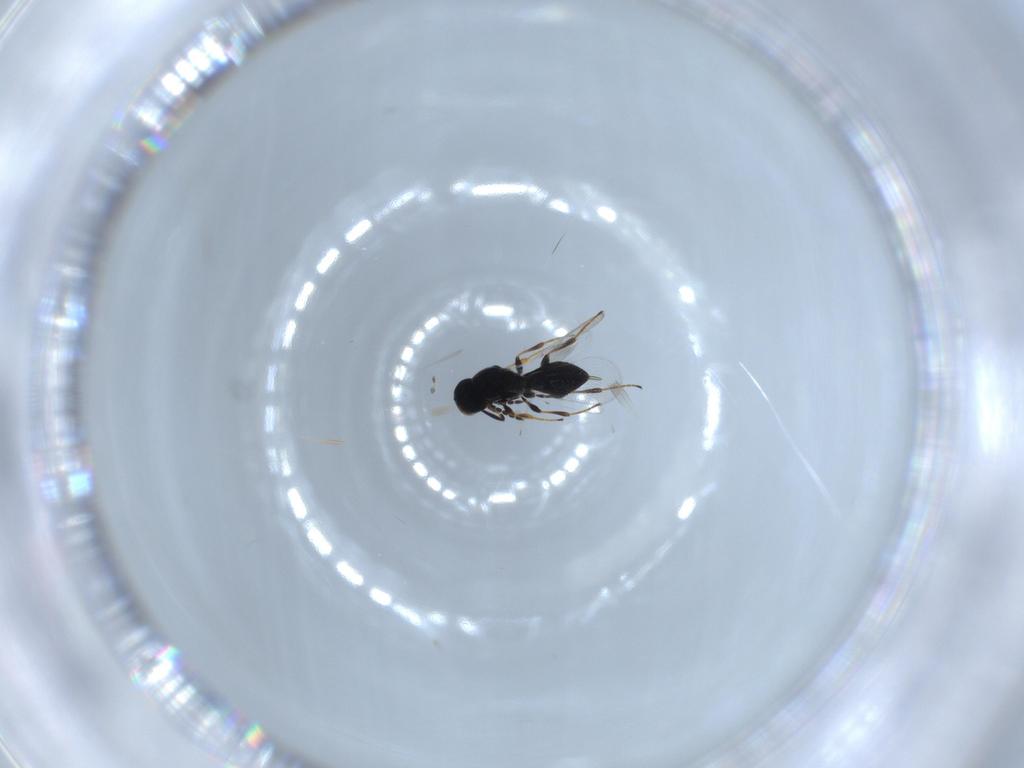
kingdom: Animalia
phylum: Arthropoda
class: Insecta
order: Hymenoptera
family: Platygastridae
